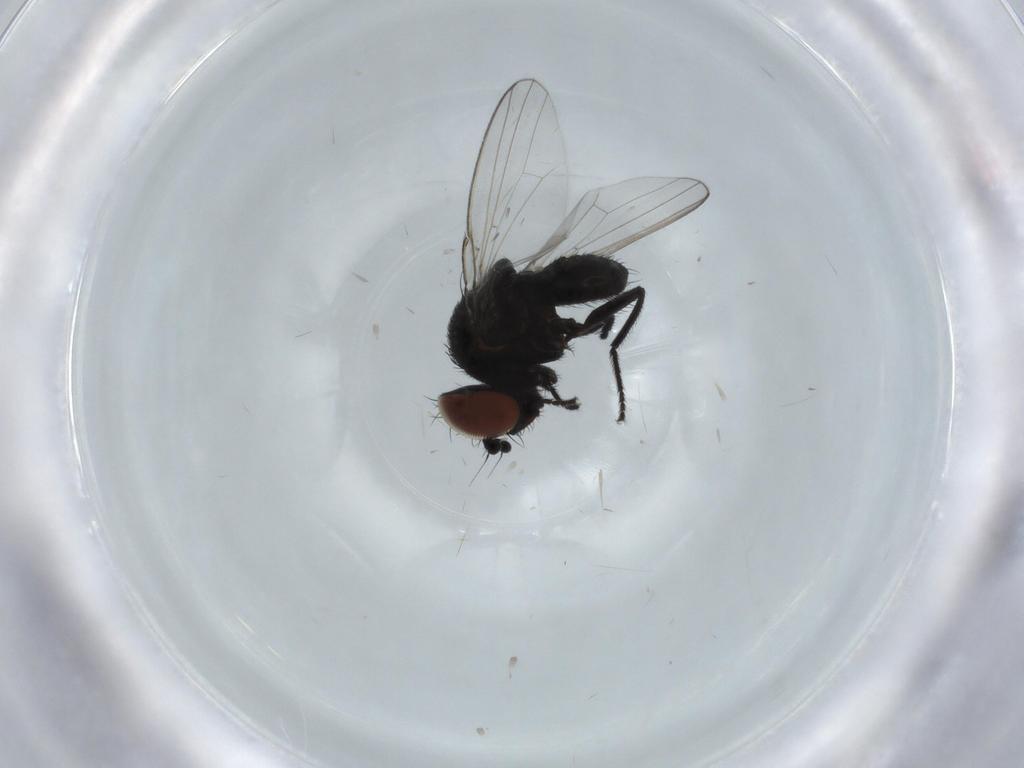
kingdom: Animalia
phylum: Arthropoda
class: Insecta
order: Diptera
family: Fannia
